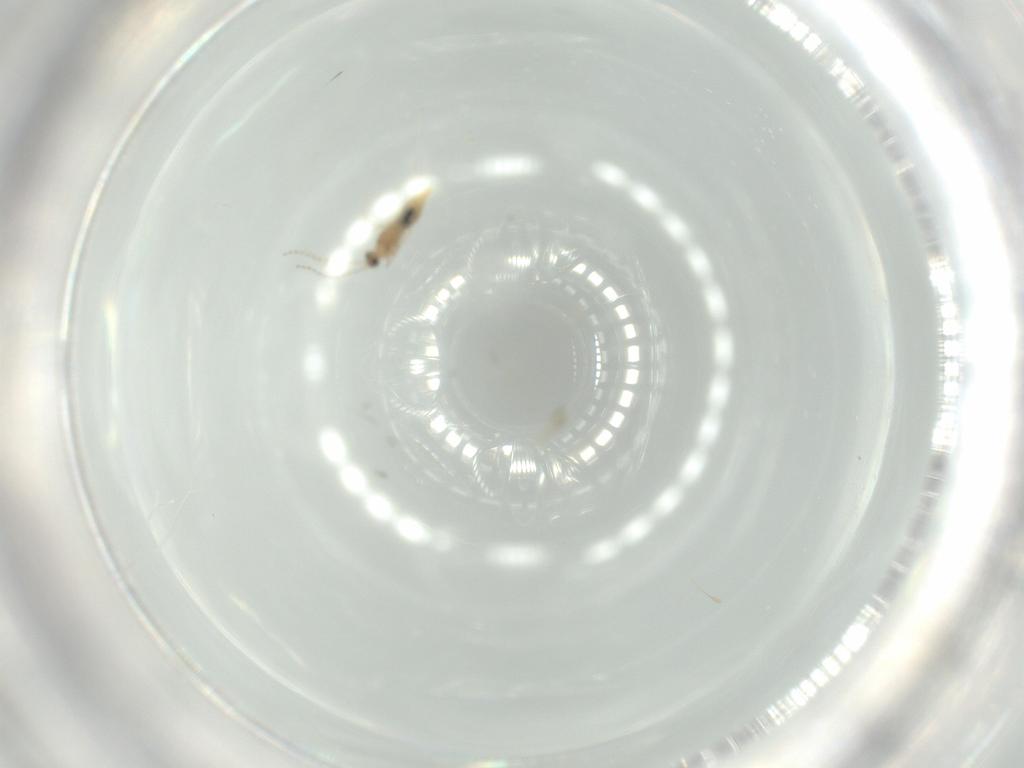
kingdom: Animalia
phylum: Arthropoda
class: Insecta
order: Diptera
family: Cecidomyiidae
